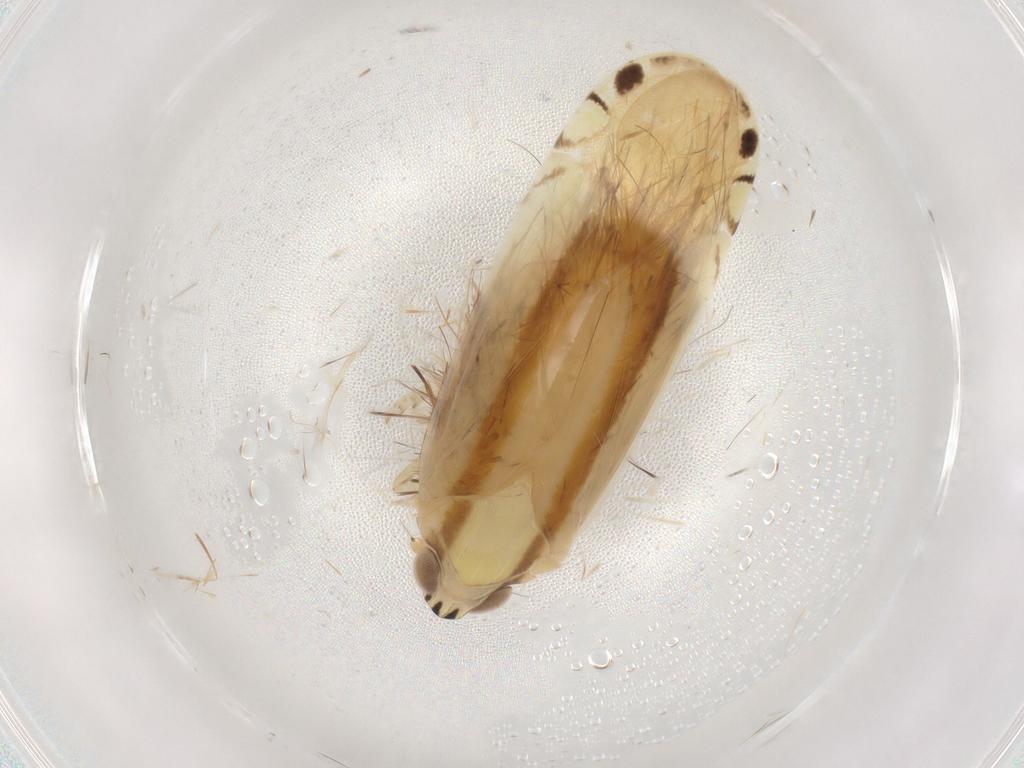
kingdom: Animalia
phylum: Arthropoda
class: Insecta
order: Hemiptera
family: Achilidae
